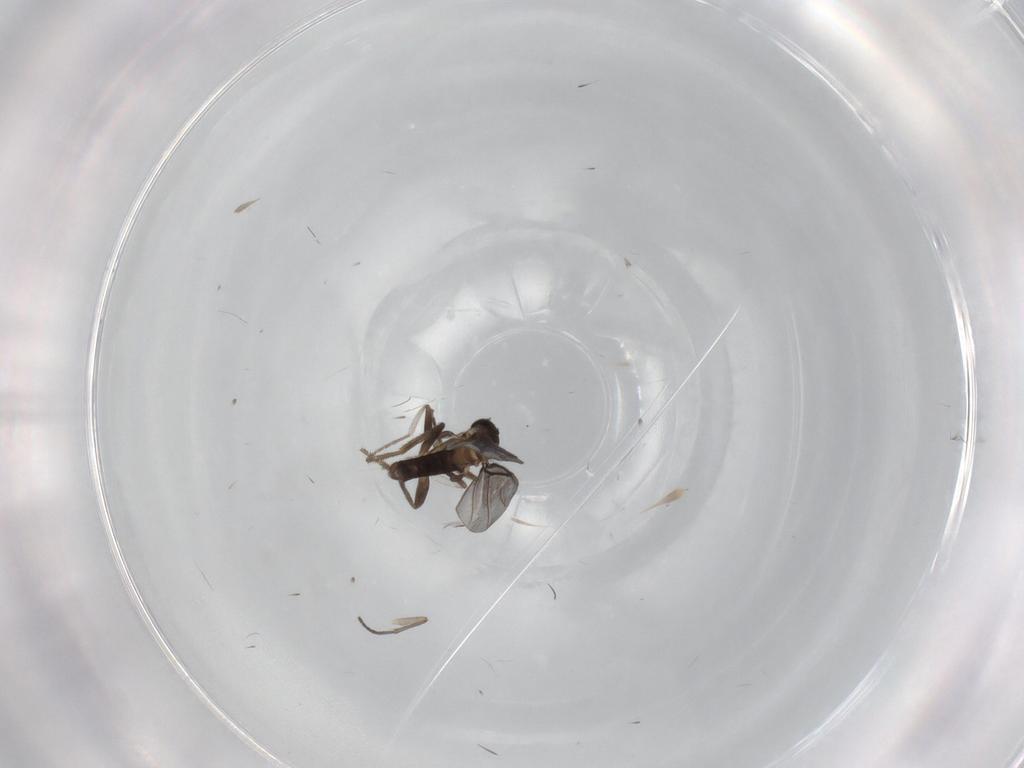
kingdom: Animalia
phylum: Arthropoda
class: Insecta
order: Diptera
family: Phoridae
